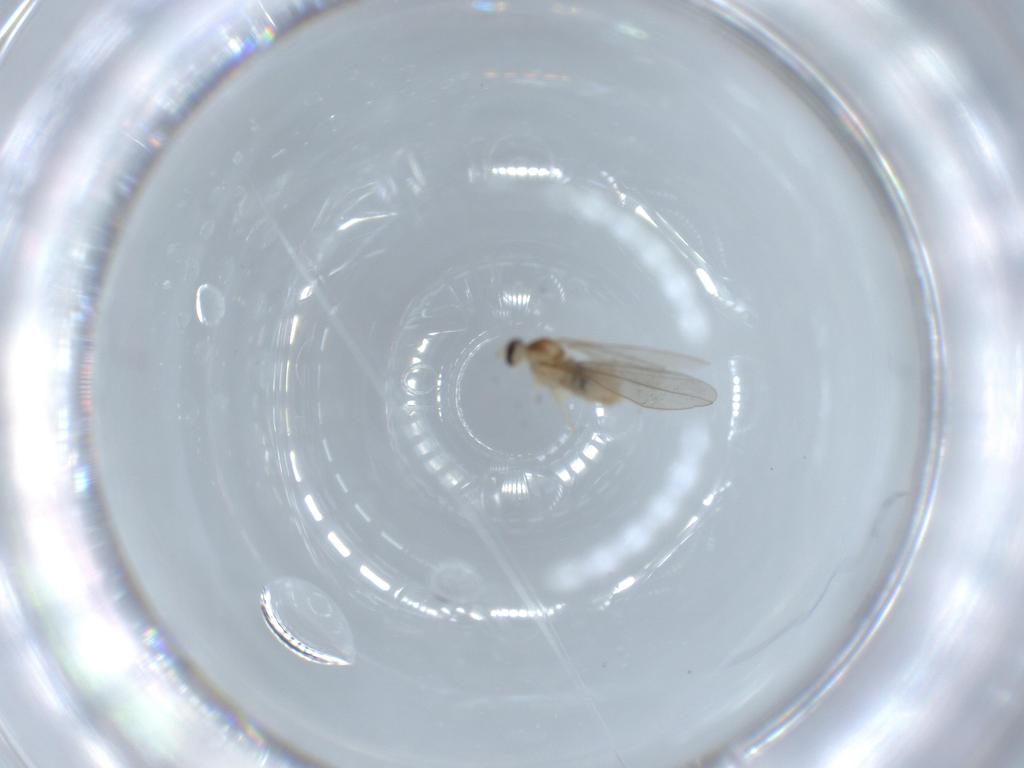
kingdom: Animalia
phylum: Arthropoda
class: Insecta
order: Diptera
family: Cecidomyiidae
